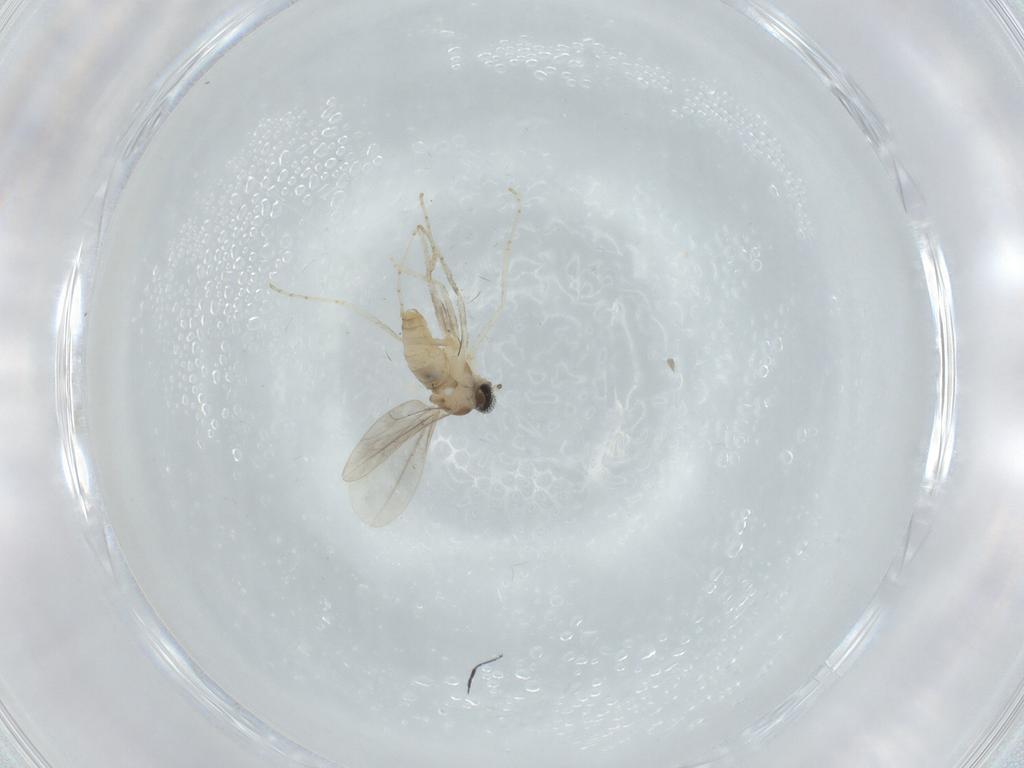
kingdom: Animalia
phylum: Arthropoda
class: Insecta
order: Diptera
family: Cecidomyiidae
